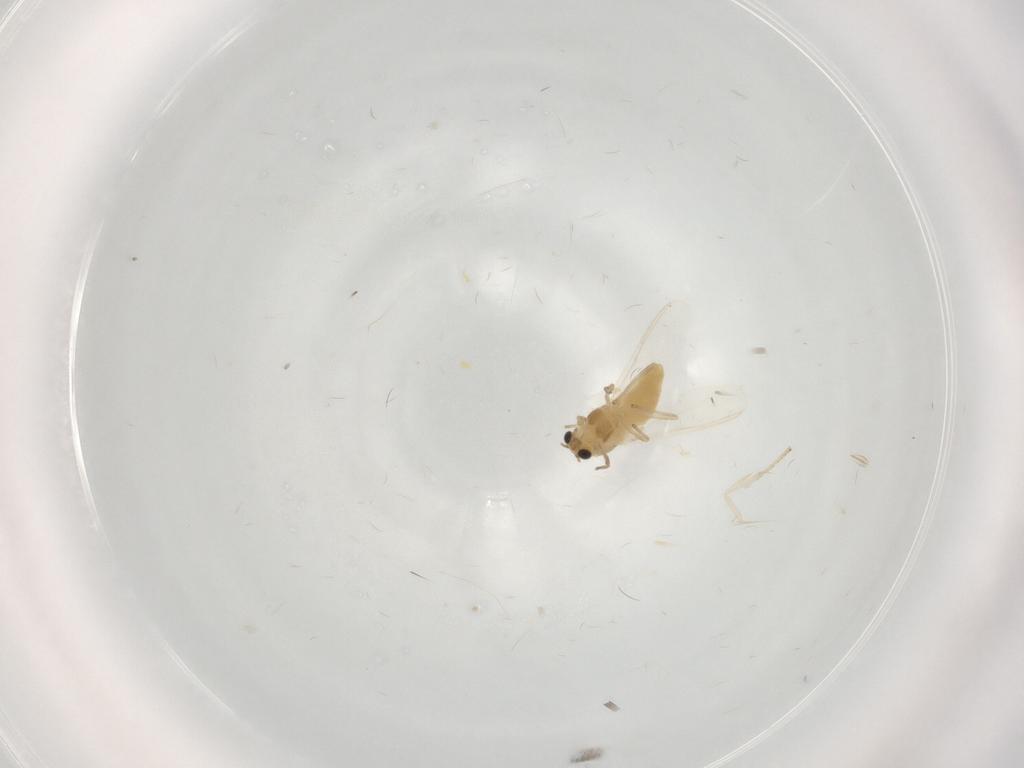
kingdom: Animalia
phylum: Arthropoda
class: Insecta
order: Diptera
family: Chironomidae
